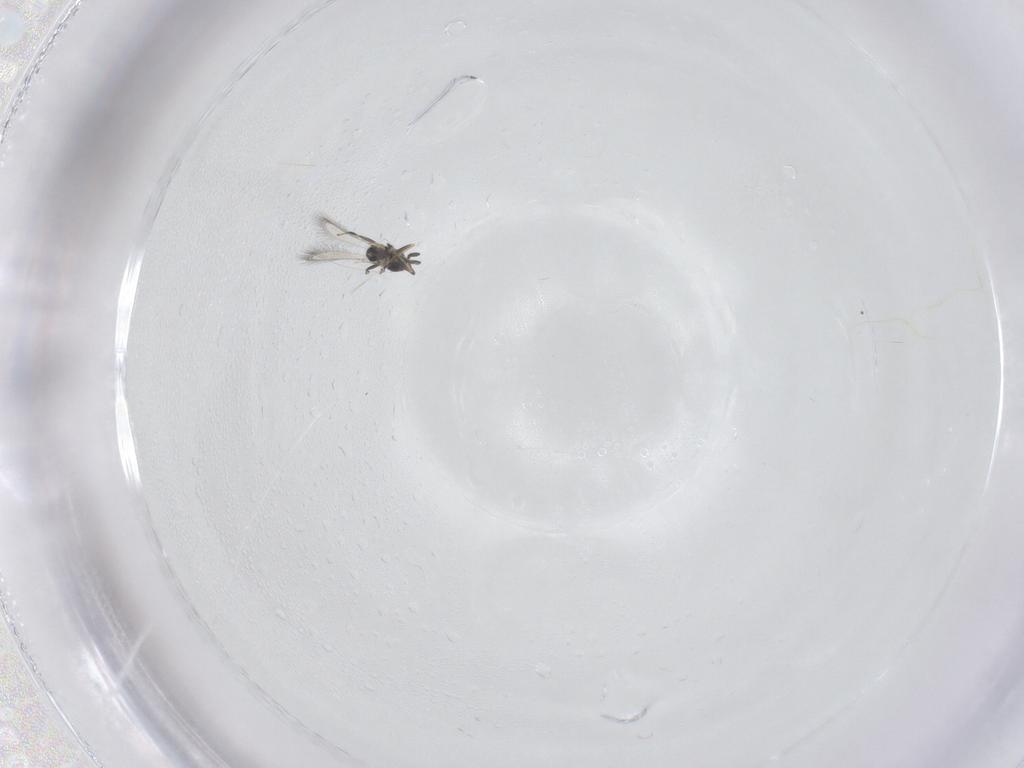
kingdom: Animalia
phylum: Arthropoda
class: Insecta
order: Hymenoptera
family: Mymaridae
